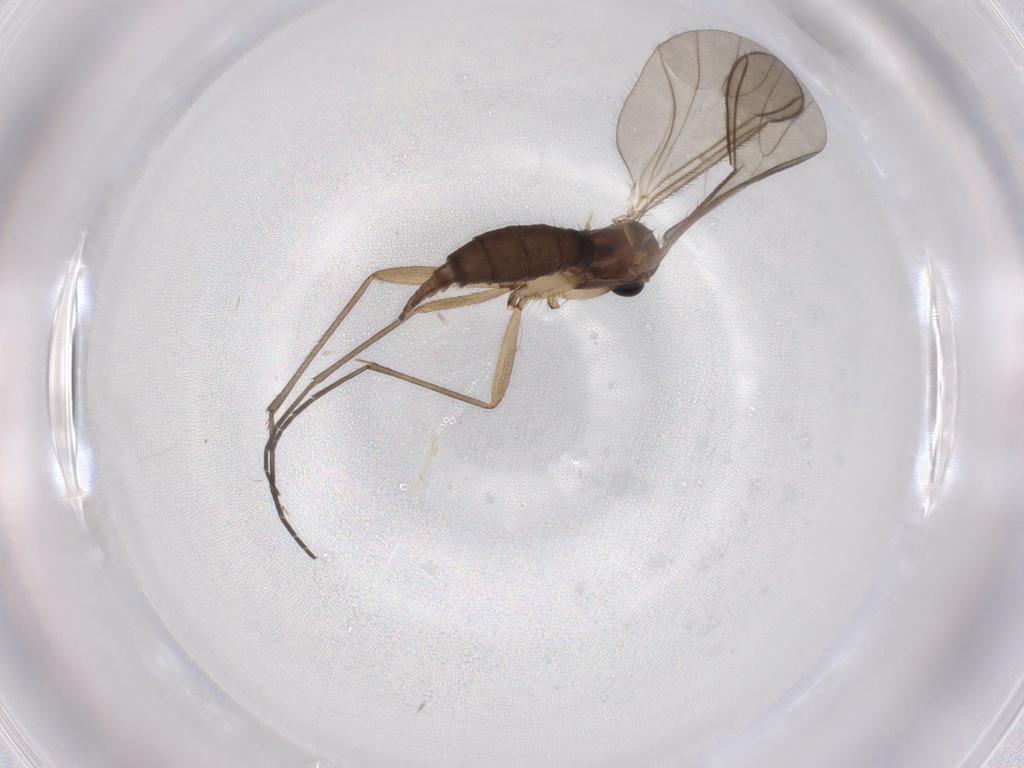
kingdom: Animalia
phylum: Arthropoda
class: Insecta
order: Diptera
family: Sciaridae
